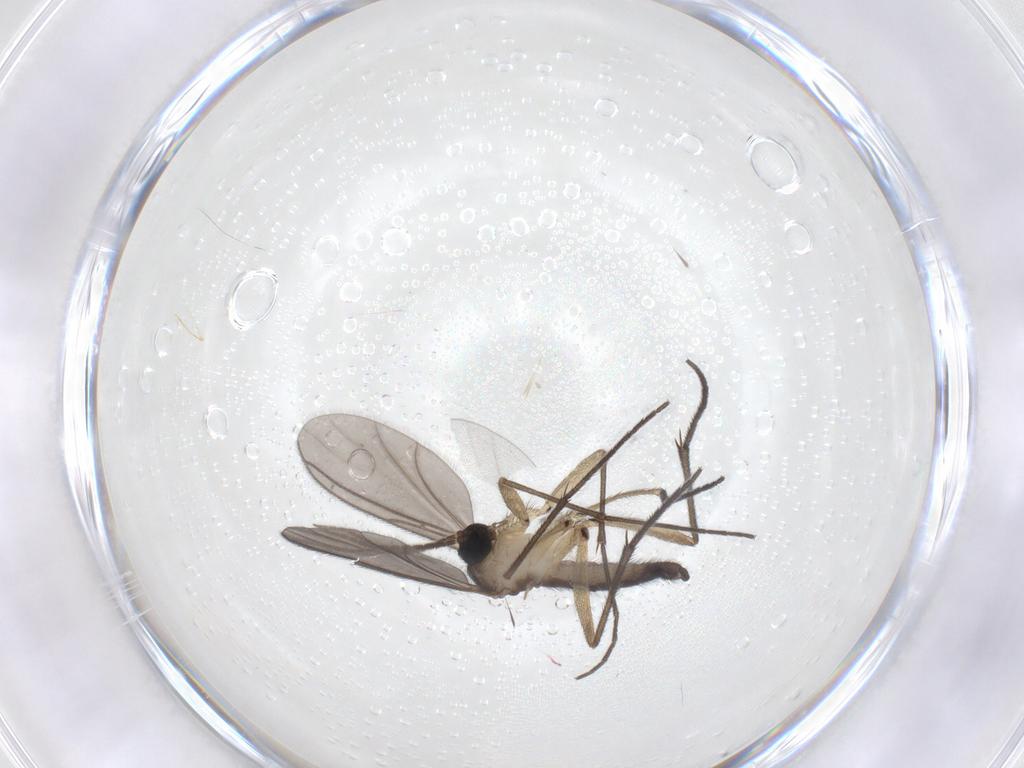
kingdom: Animalia
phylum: Arthropoda
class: Insecta
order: Diptera
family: Sciaridae
